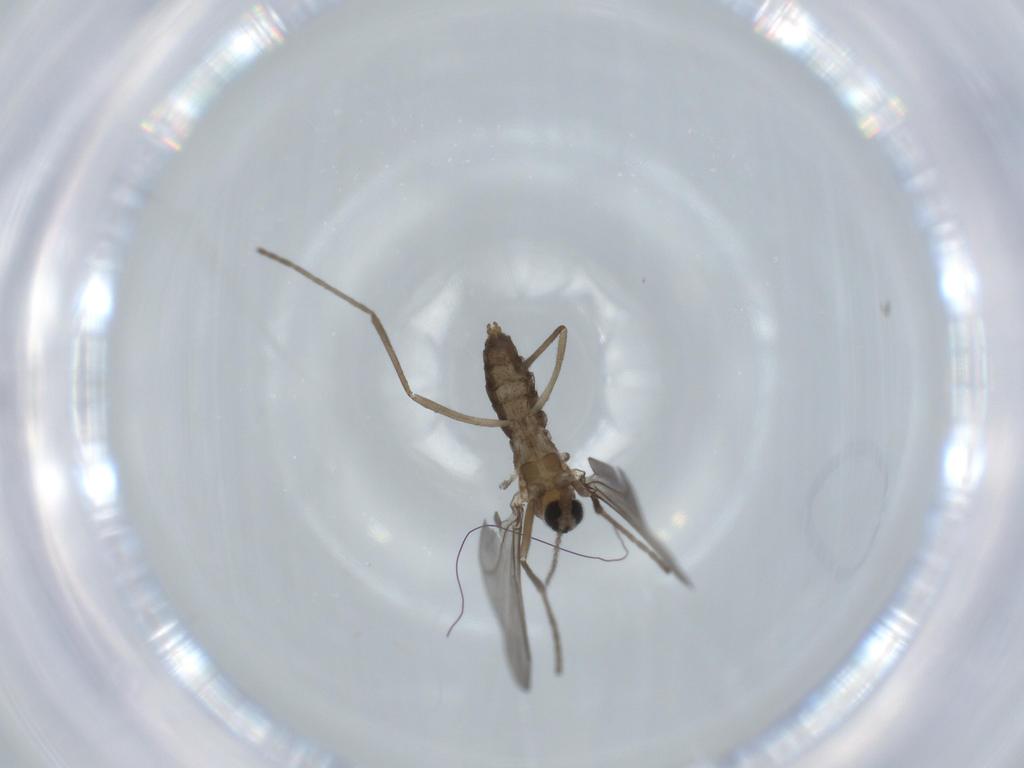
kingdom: Animalia
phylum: Arthropoda
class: Insecta
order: Diptera
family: Cecidomyiidae
